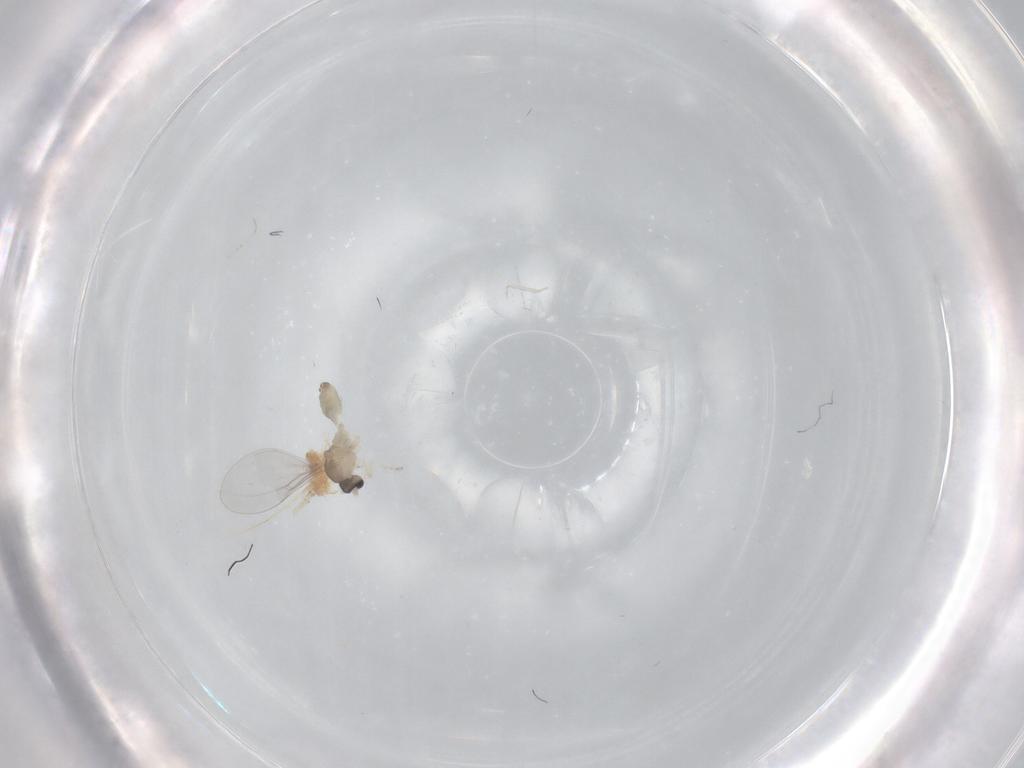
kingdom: Animalia
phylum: Arthropoda
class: Insecta
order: Diptera
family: Cecidomyiidae
